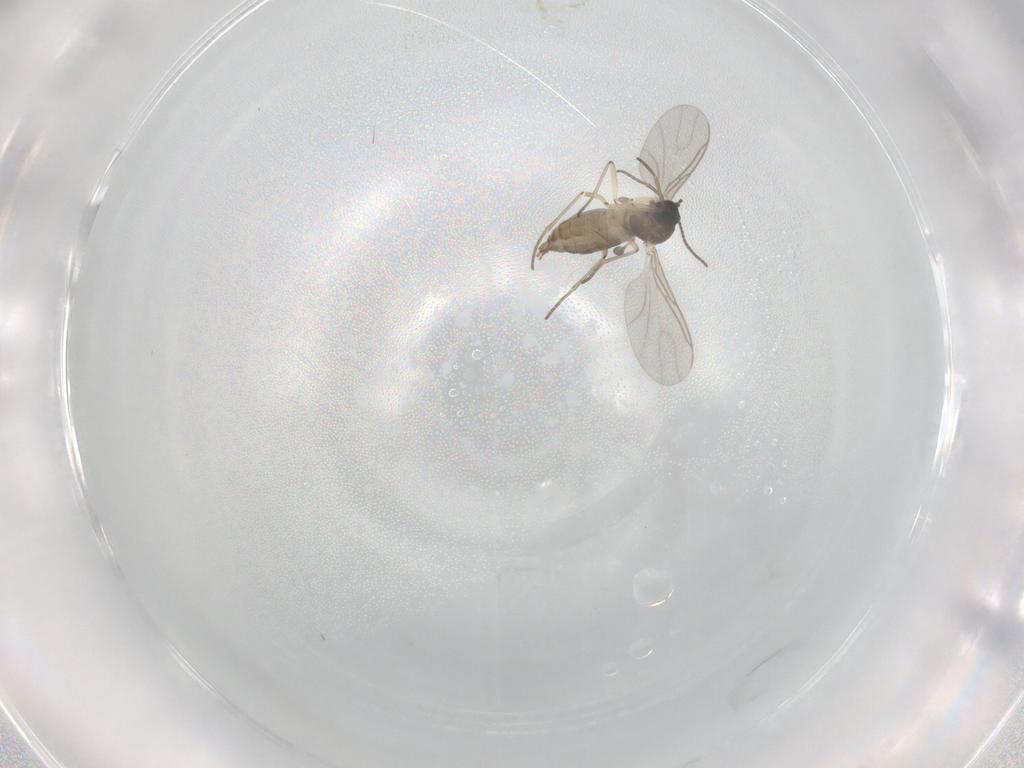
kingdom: Animalia
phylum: Arthropoda
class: Insecta
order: Diptera
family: Sciaridae
